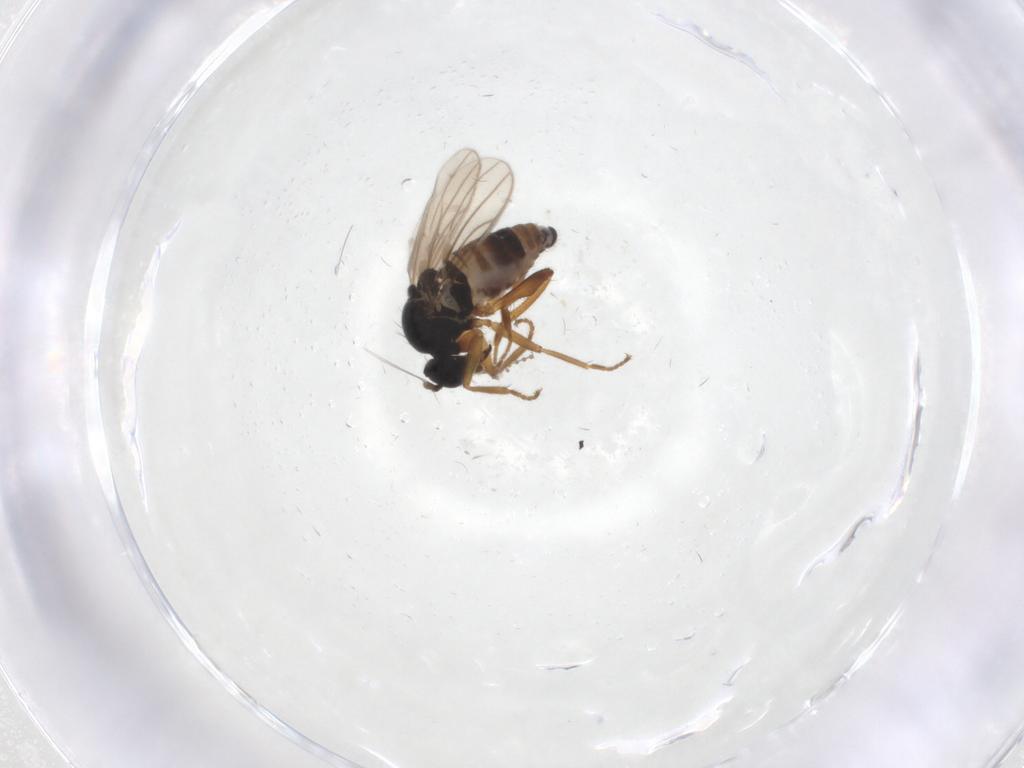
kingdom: Animalia
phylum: Arthropoda
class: Insecta
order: Diptera
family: Hybotidae
